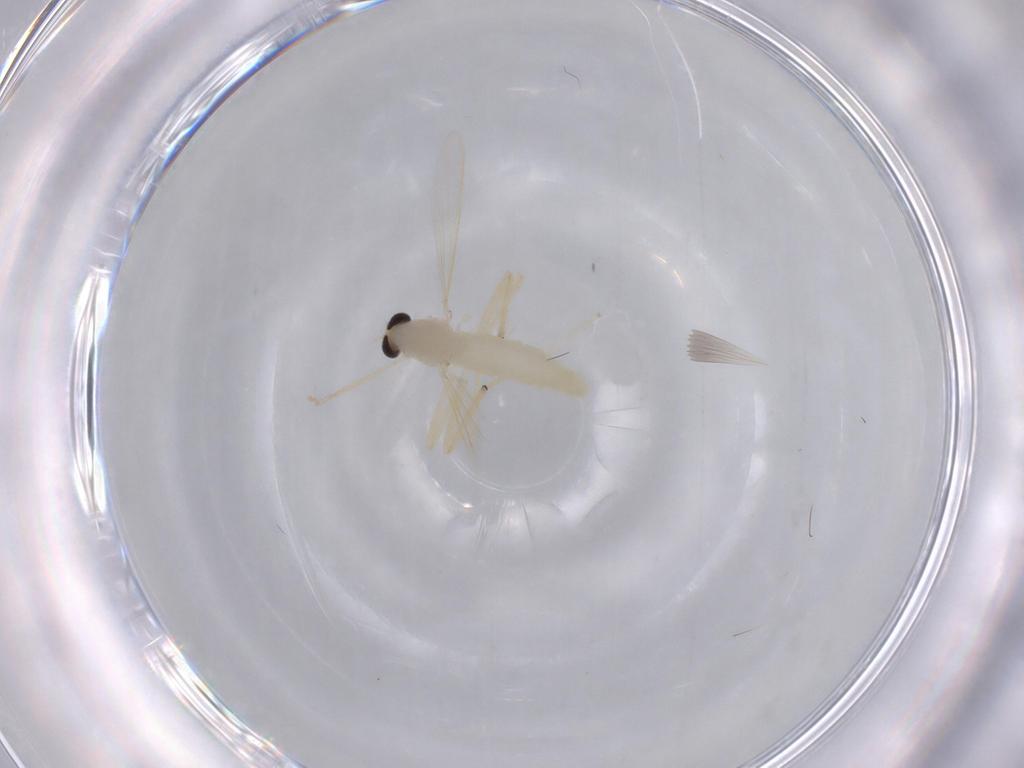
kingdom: Animalia
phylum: Arthropoda
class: Insecta
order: Diptera
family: Chironomidae
